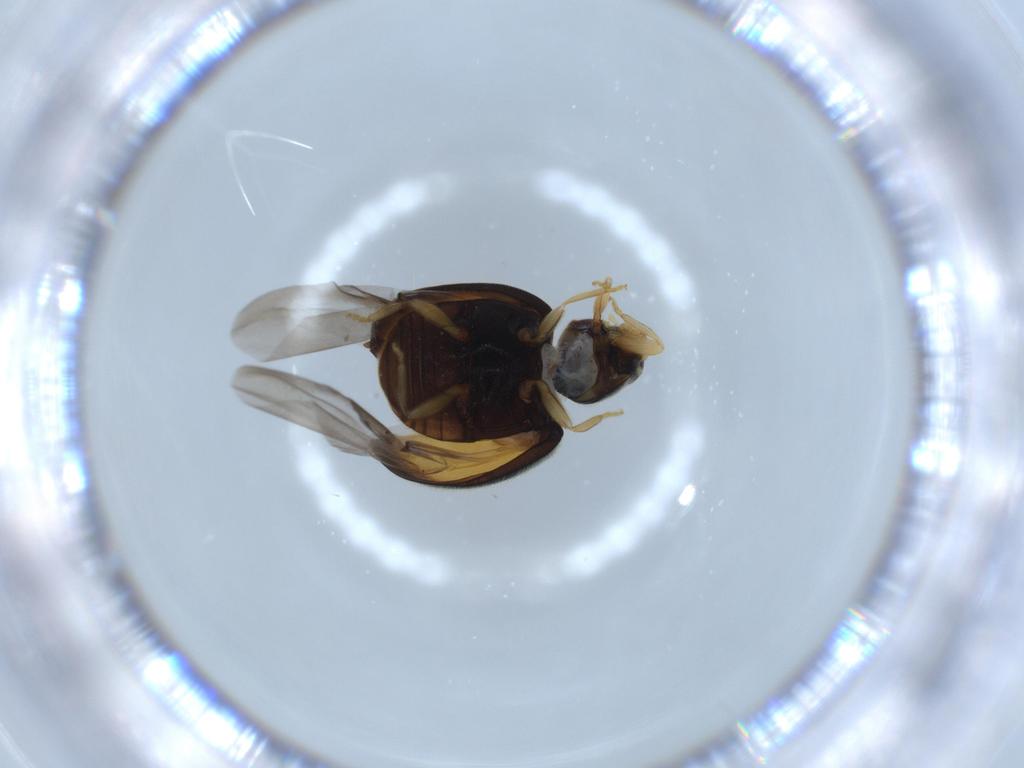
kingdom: Animalia
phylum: Arthropoda
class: Insecta
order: Coleoptera
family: Coccinellidae
